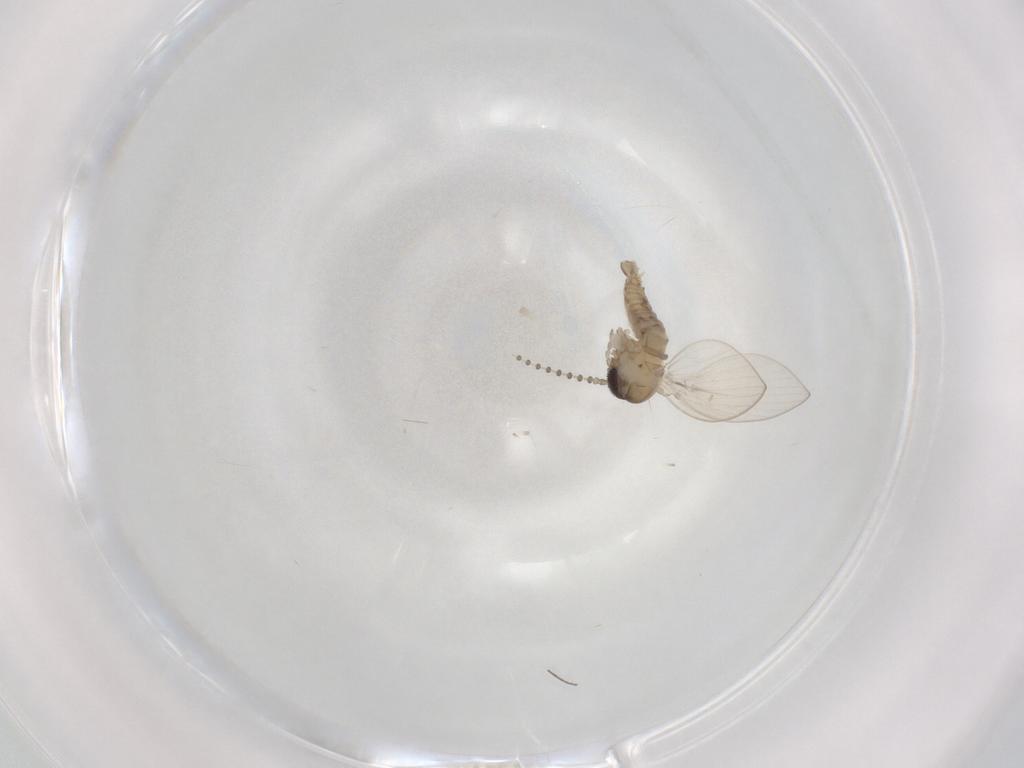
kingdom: Animalia
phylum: Arthropoda
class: Insecta
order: Diptera
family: Psychodidae
